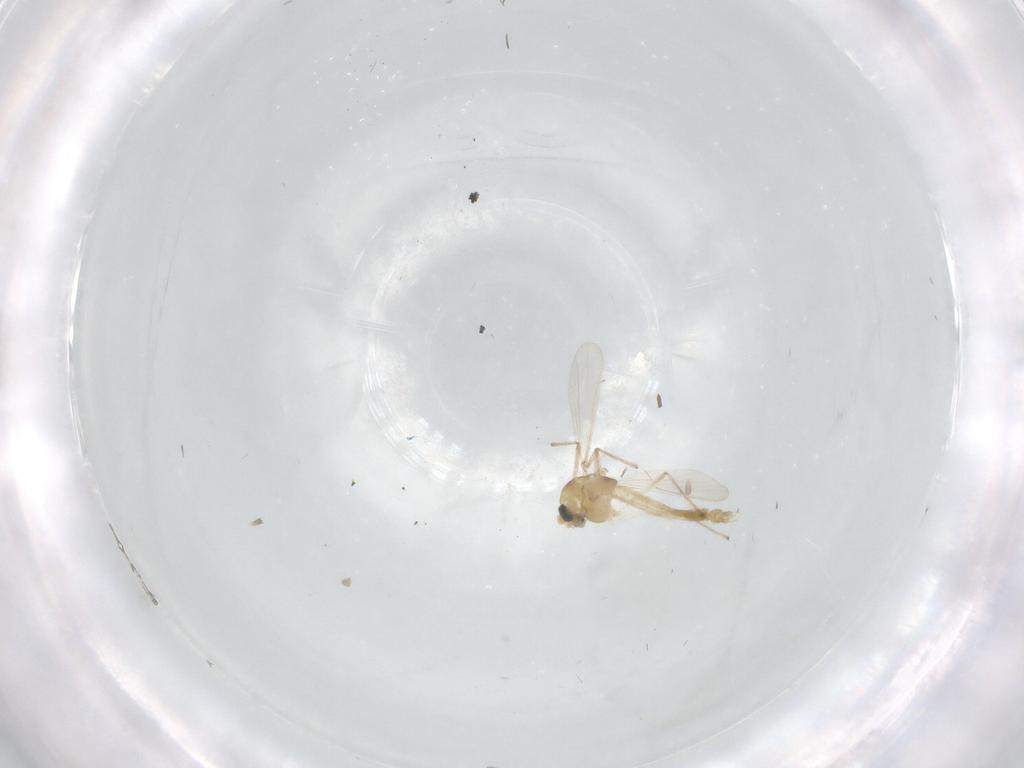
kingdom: Animalia
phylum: Arthropoda
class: Insecta
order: Diptera
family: Chironomidae
